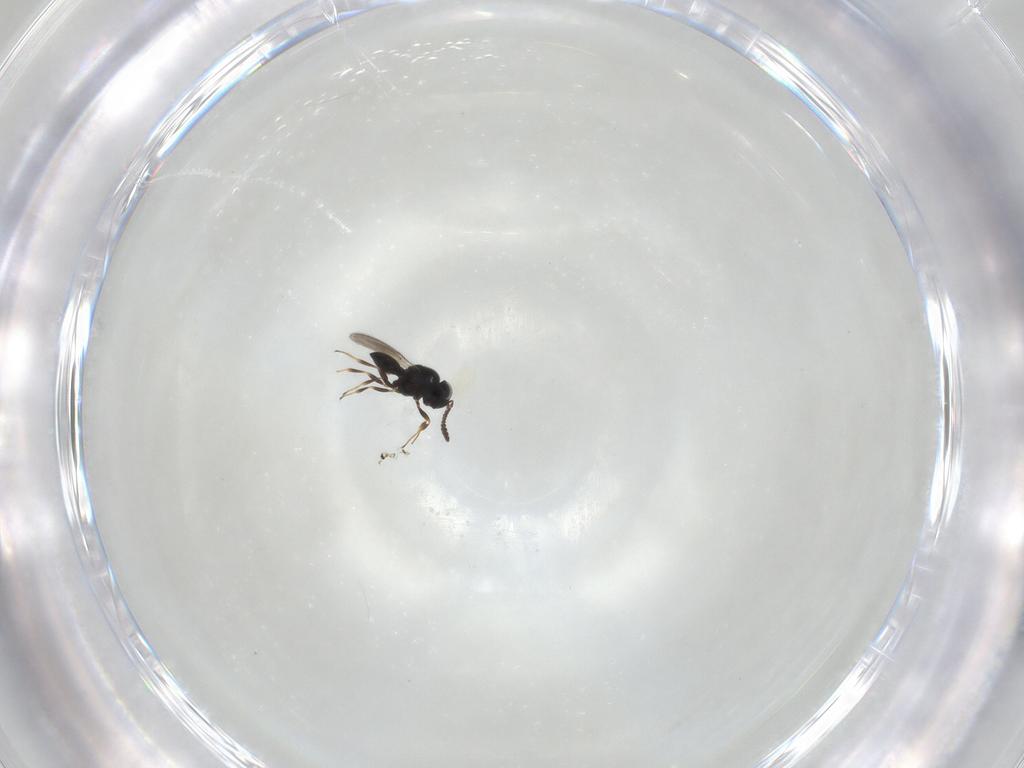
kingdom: Animalia
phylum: Arthropoda
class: Insecta
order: Hymenoptera
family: Scelionidae
